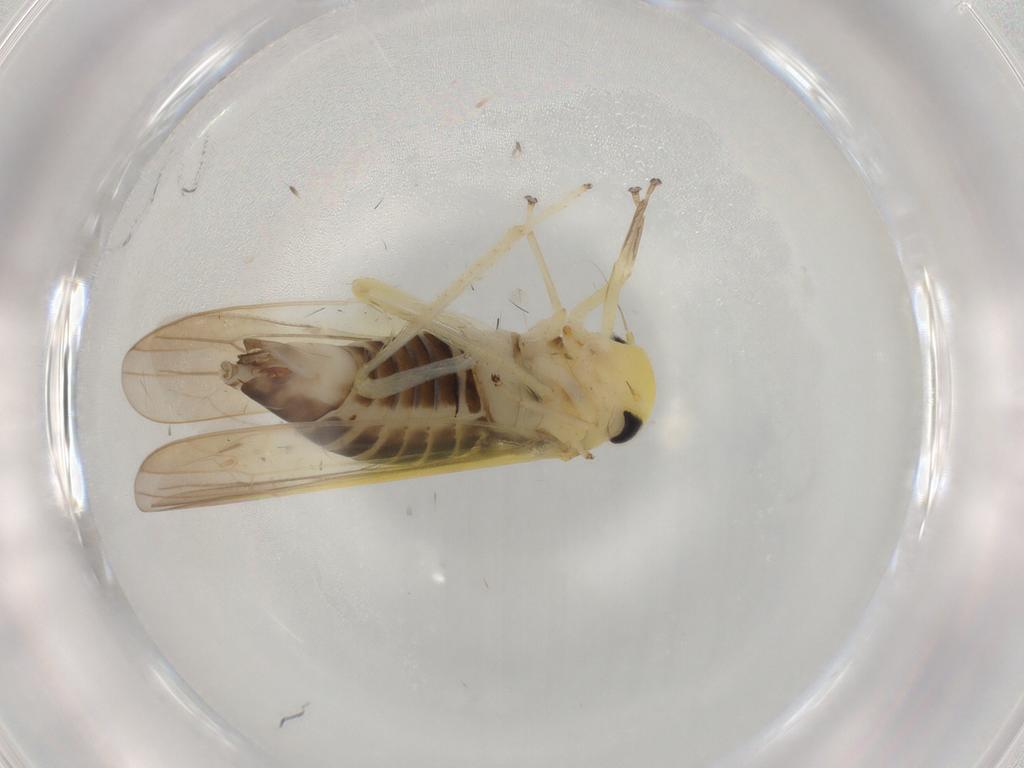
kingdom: Animalia
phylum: Arthropoda
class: Insecta
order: Hemiptera
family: Cicadellidae
